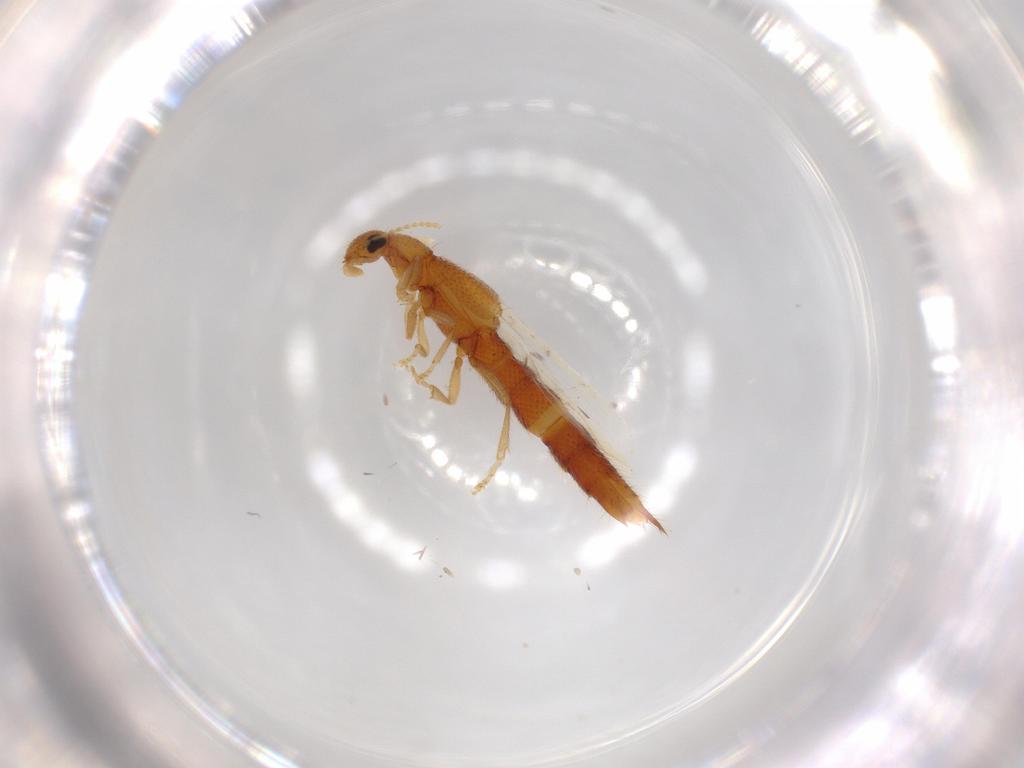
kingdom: Animalia
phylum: Arthropoda
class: Insecta
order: Coleoptera
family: Staphylinidae
